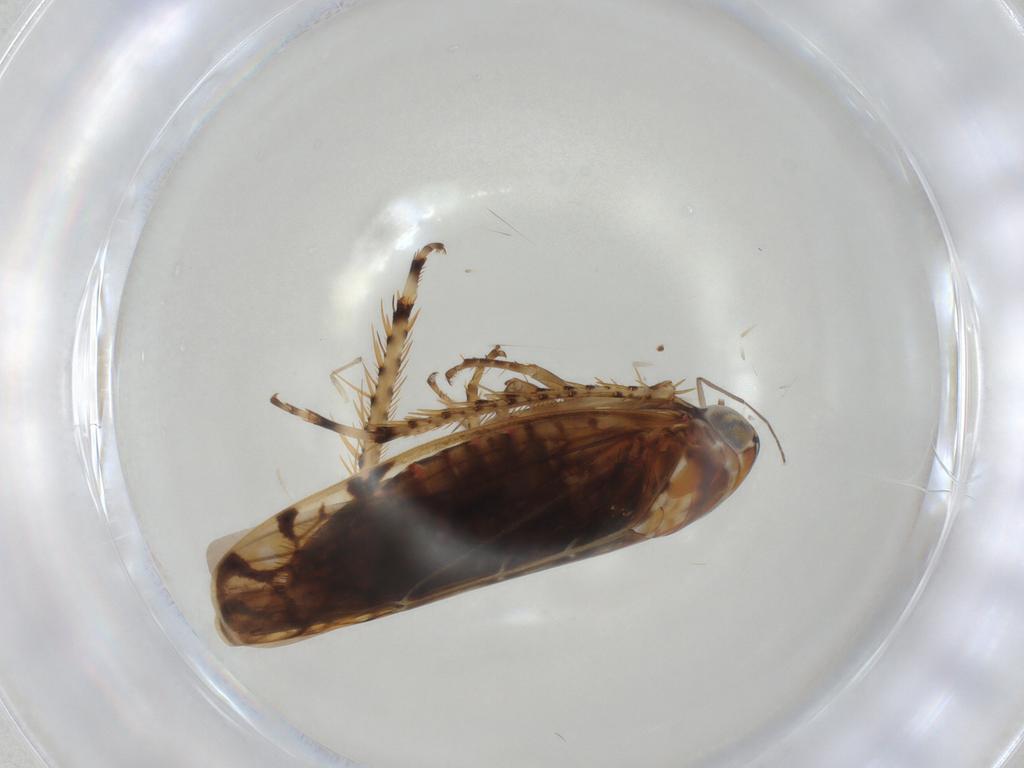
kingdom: Animalia
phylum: Arthropoda
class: Insecta
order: Hemiptera
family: Cicadellidae
